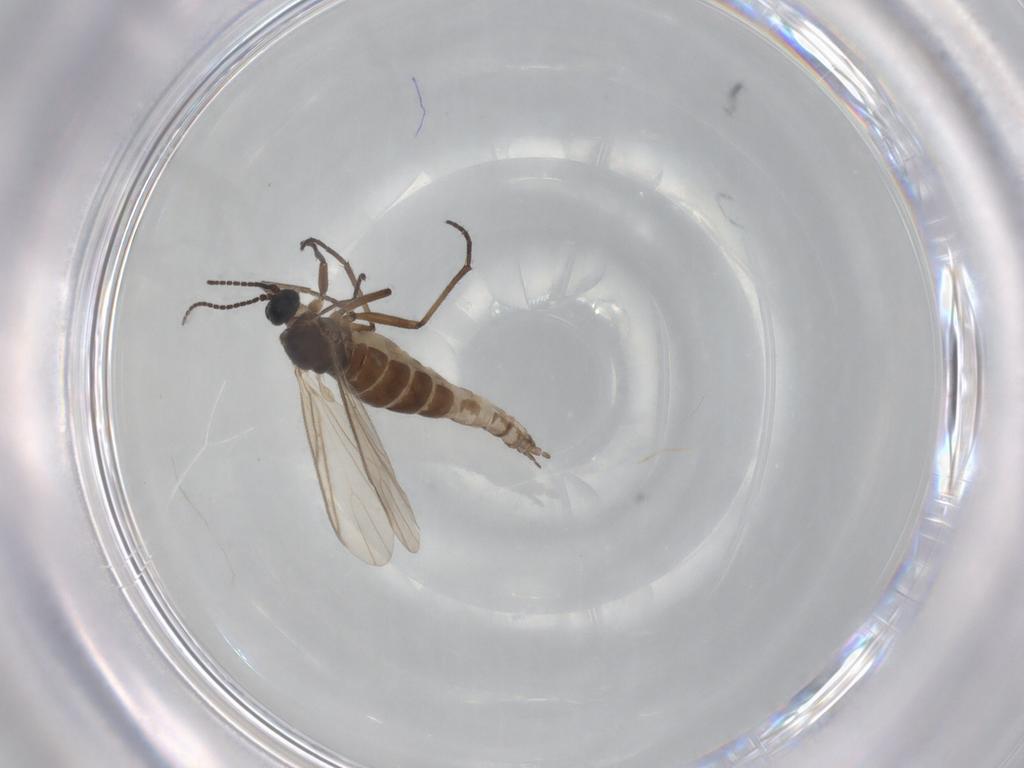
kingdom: Animalia
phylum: Arthropoda
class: Insecta
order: Diptera
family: Sciaridae
